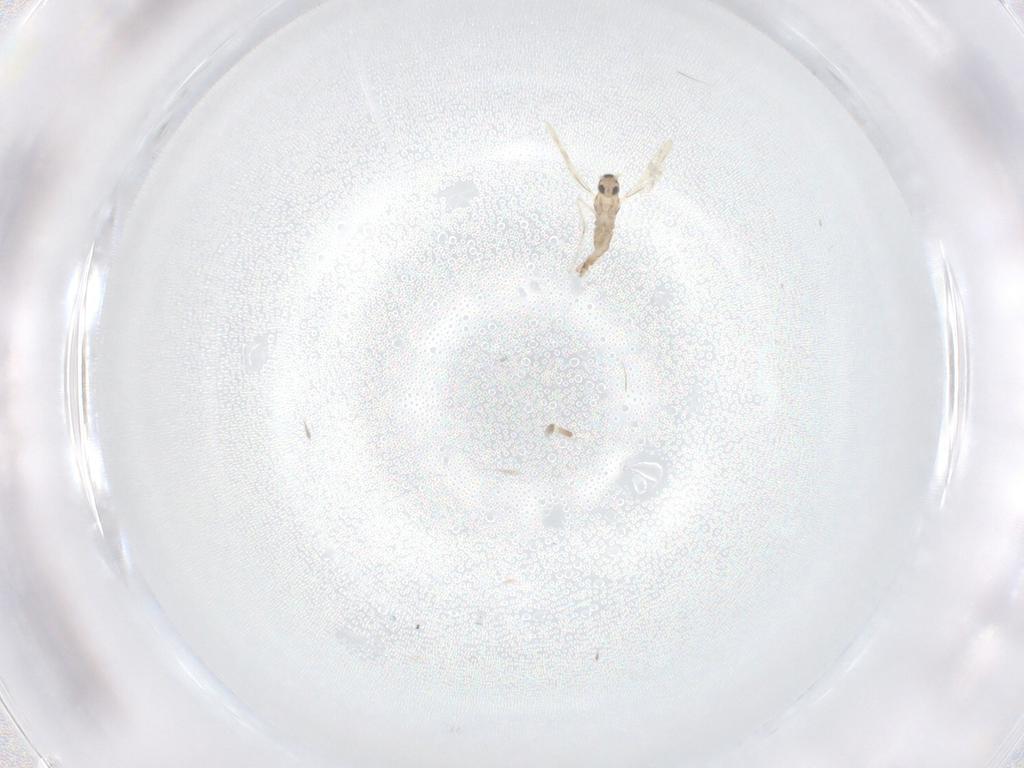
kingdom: Animalia
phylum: Arthropoda
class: Insecta
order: Diptera
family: Cecidomyiidae
